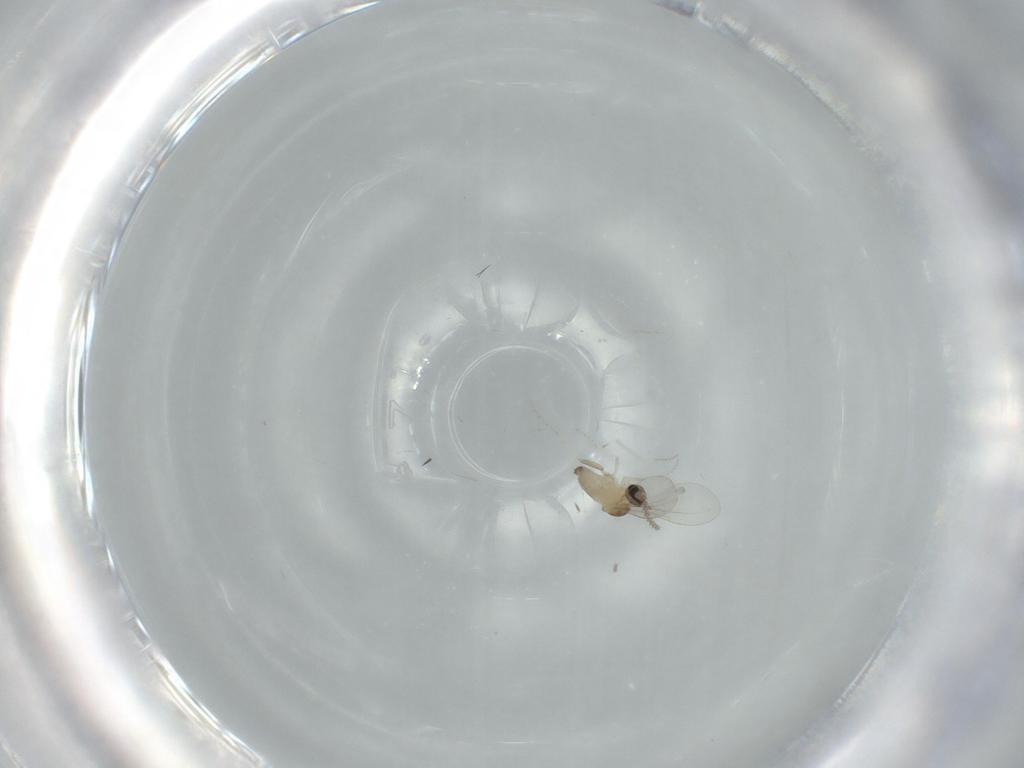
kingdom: Animalia
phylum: Arthropoda
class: Insecta
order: Diptera
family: Cecidomyiidae
